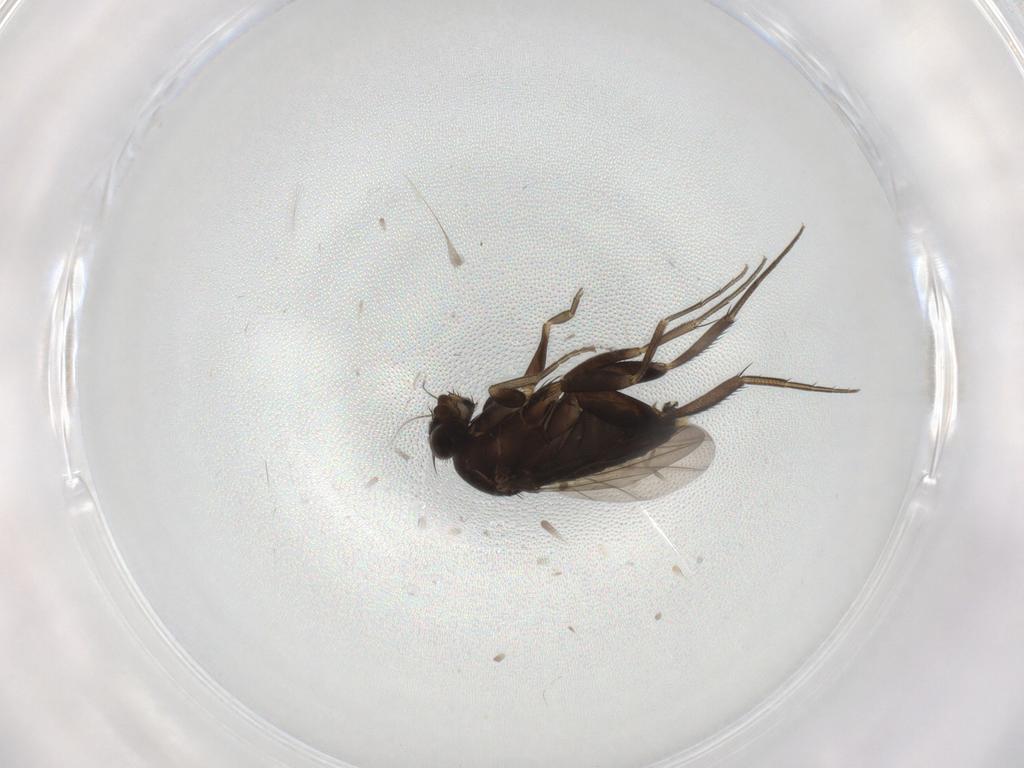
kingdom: Animalia
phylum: Arthropoda
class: Insecta
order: Diptera
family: Cecidomyiidae
